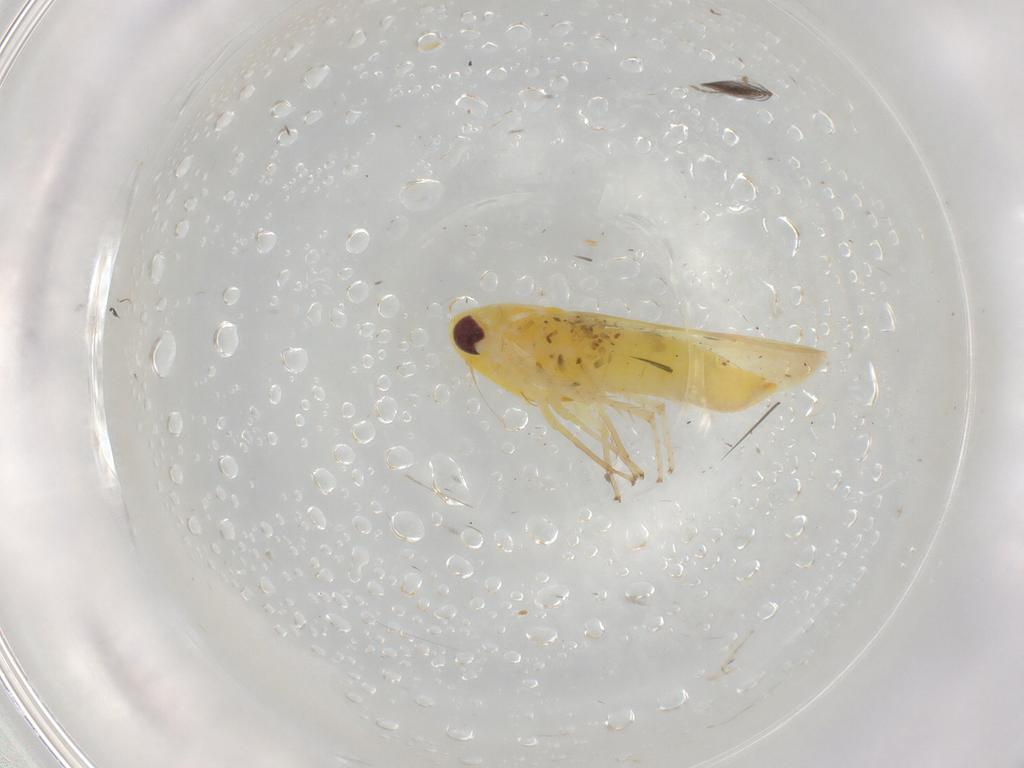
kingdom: Animalia
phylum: Arthropoda
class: Insecta
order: Hemiptera
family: Cicadellidae
